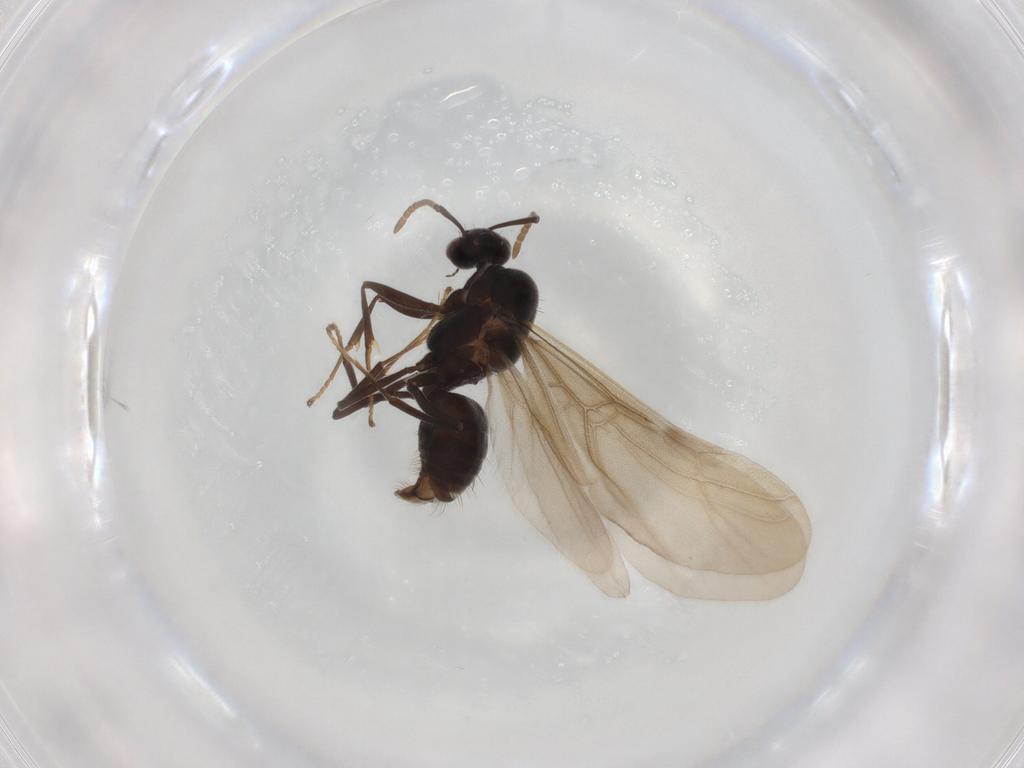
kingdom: Animalia
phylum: Arthropoda
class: Insecta
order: Hymenoptera
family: Formicidae
